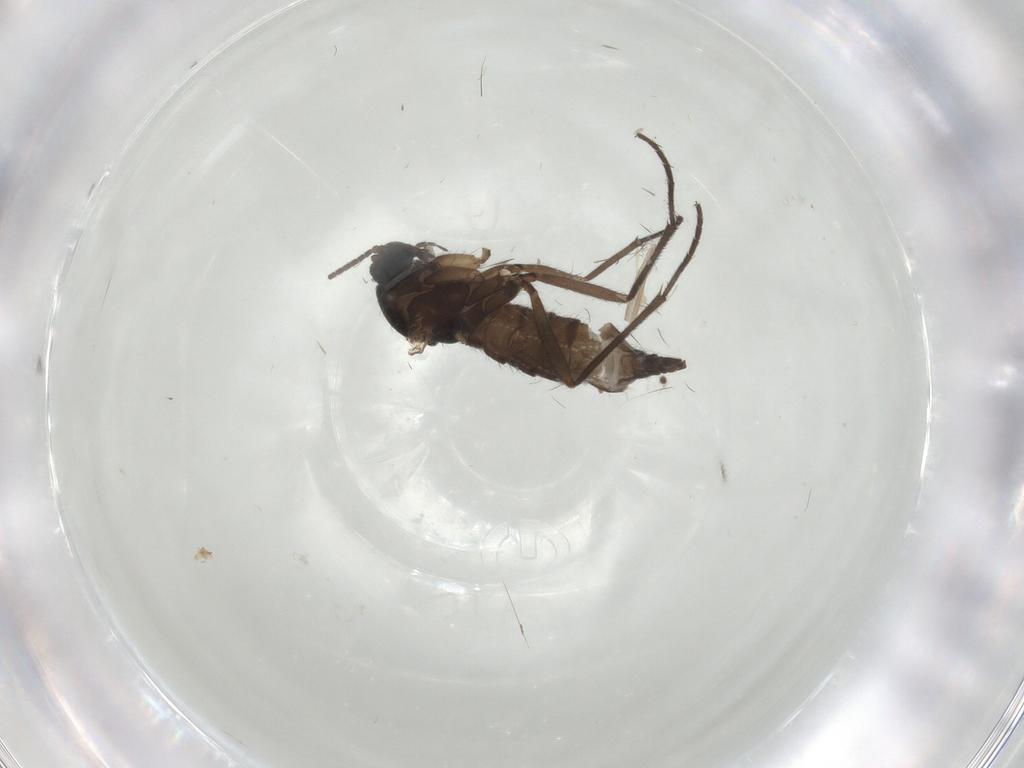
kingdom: Animalia
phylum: Arthropoda
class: Insecta
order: Diptera
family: Sciaridae
